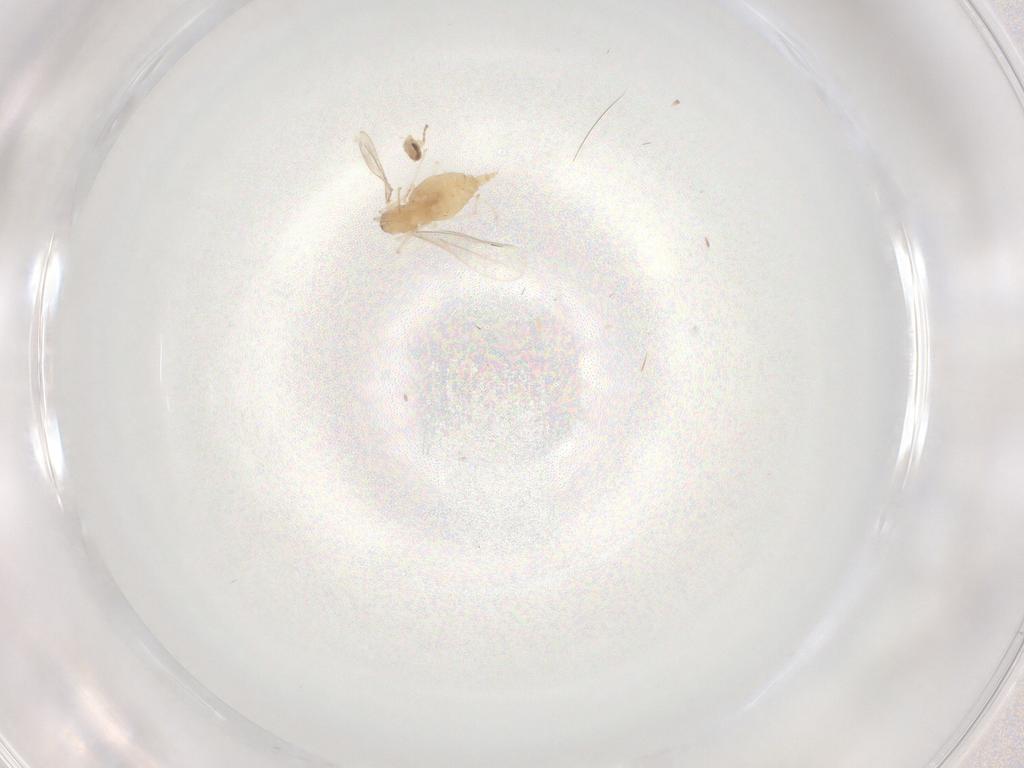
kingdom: Animalia
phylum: Arthropoda
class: Insecta
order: Diptera
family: Cecidomyiidae
